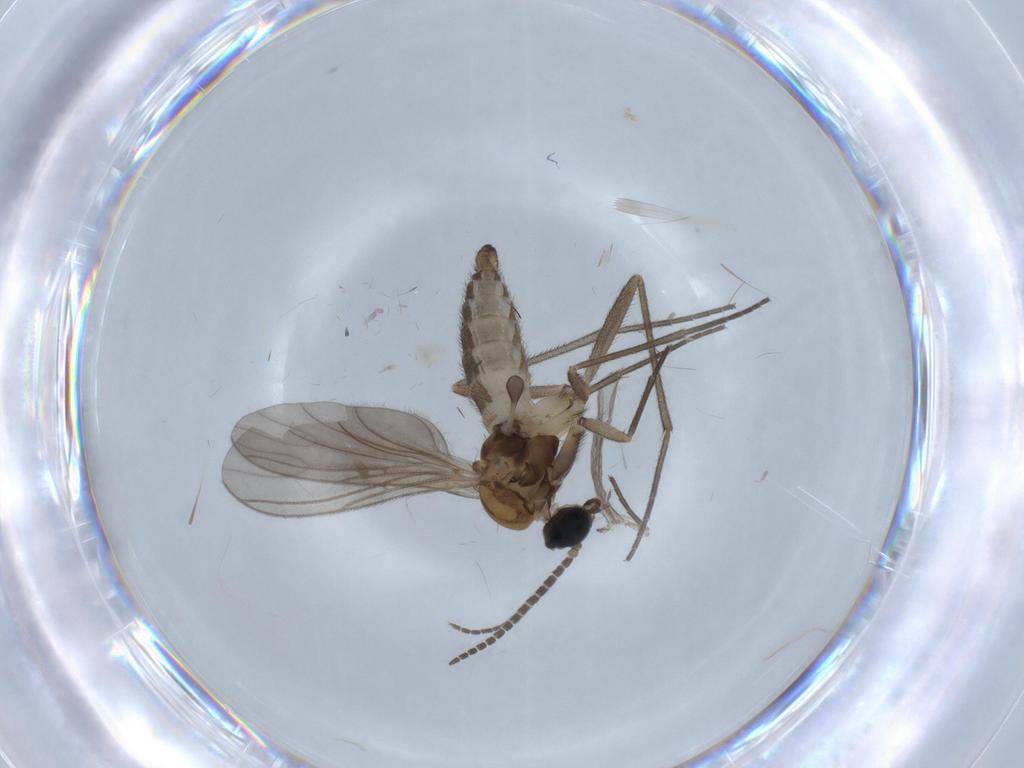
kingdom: Animalia
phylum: Arthropoda
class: Insecta
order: Diptera
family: Sciaridae
